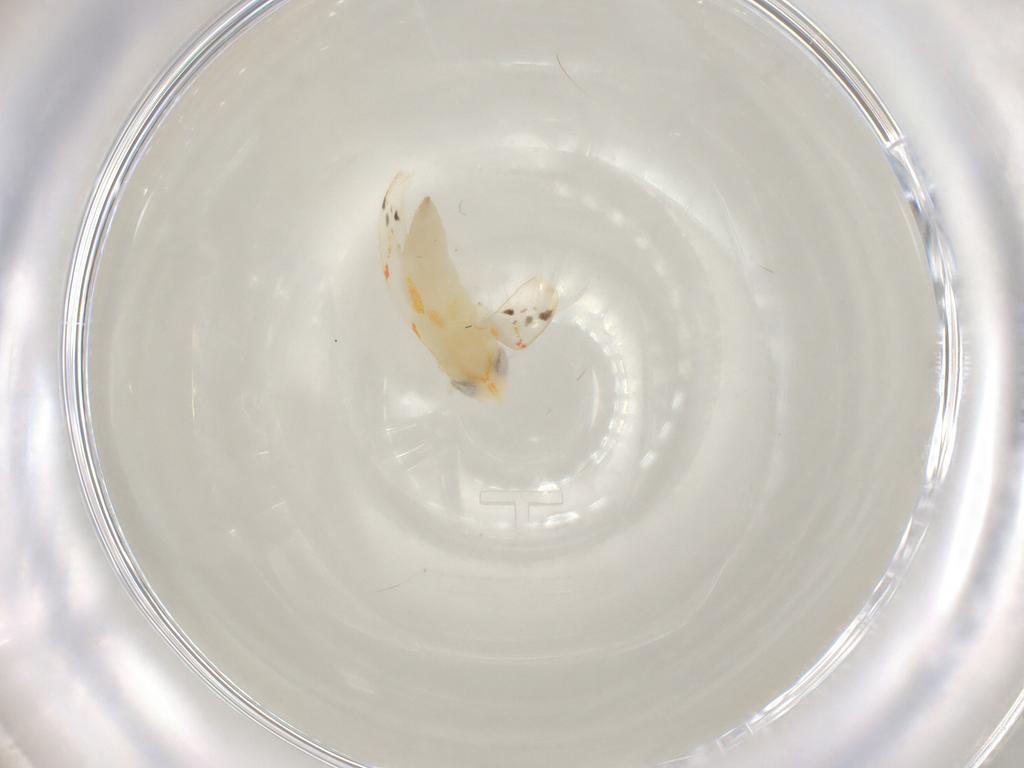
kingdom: Animalia
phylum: Arthropoda
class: Insecta
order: Hemiptera
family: Cicadellidae
